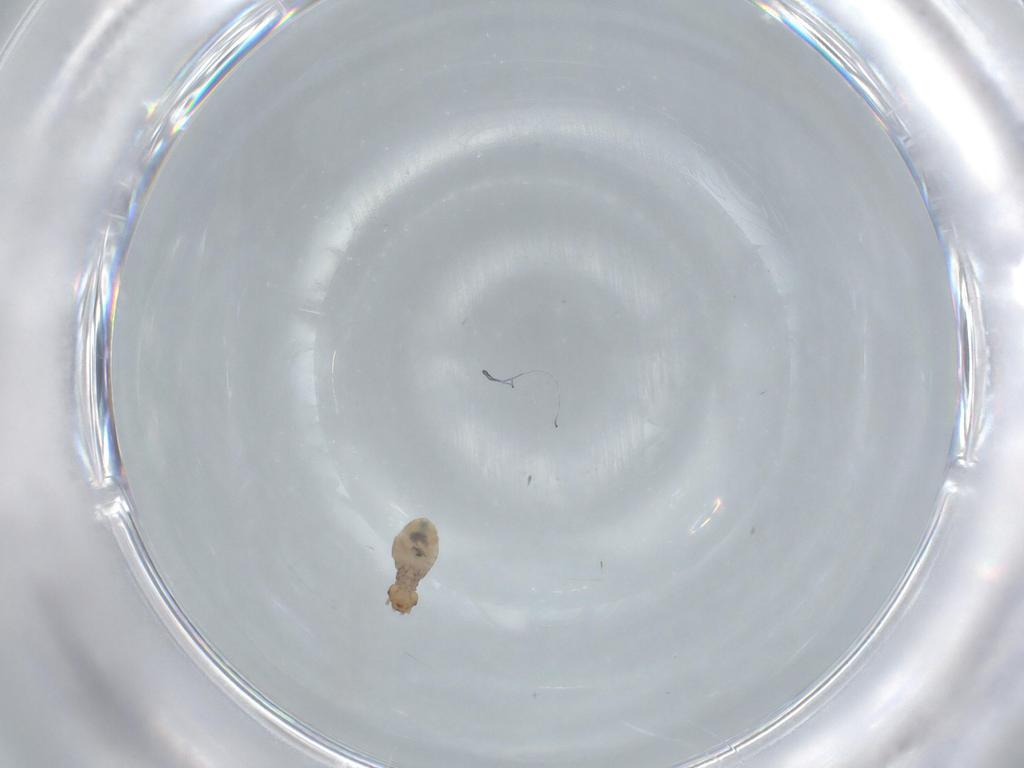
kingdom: Animalia
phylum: Arthropoda
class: Insecta
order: Psocodea
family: Liposcelididae
